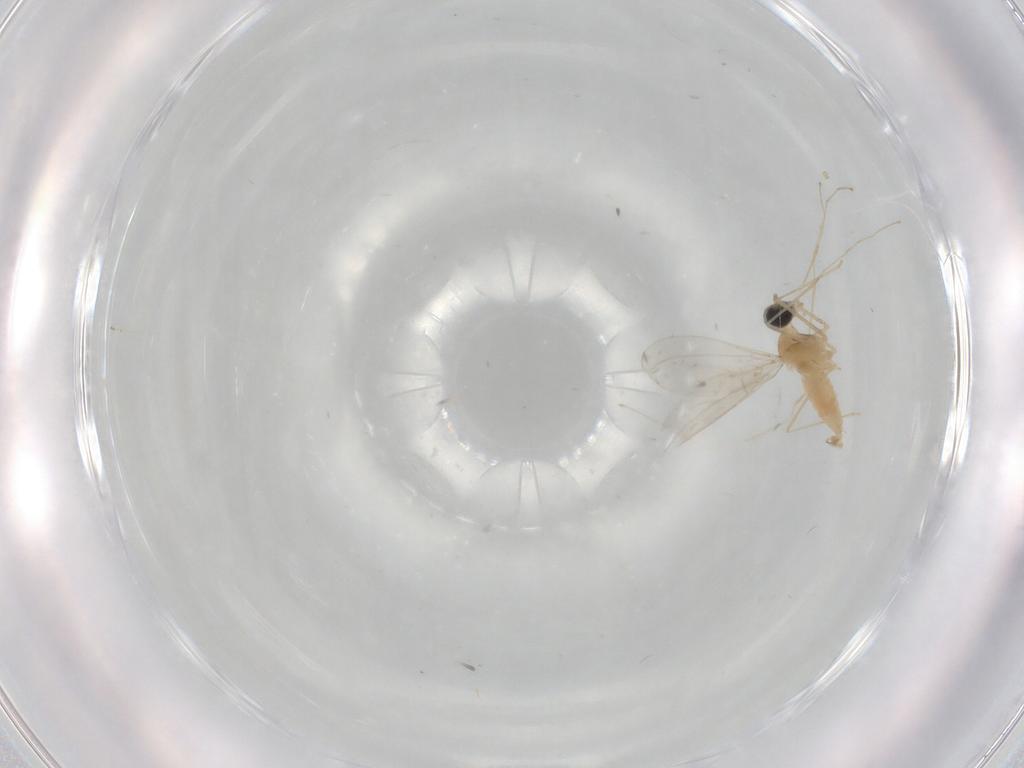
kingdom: Animalia
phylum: Arthropoda
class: Insecta
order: Diptera
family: Cecidomyiidae
